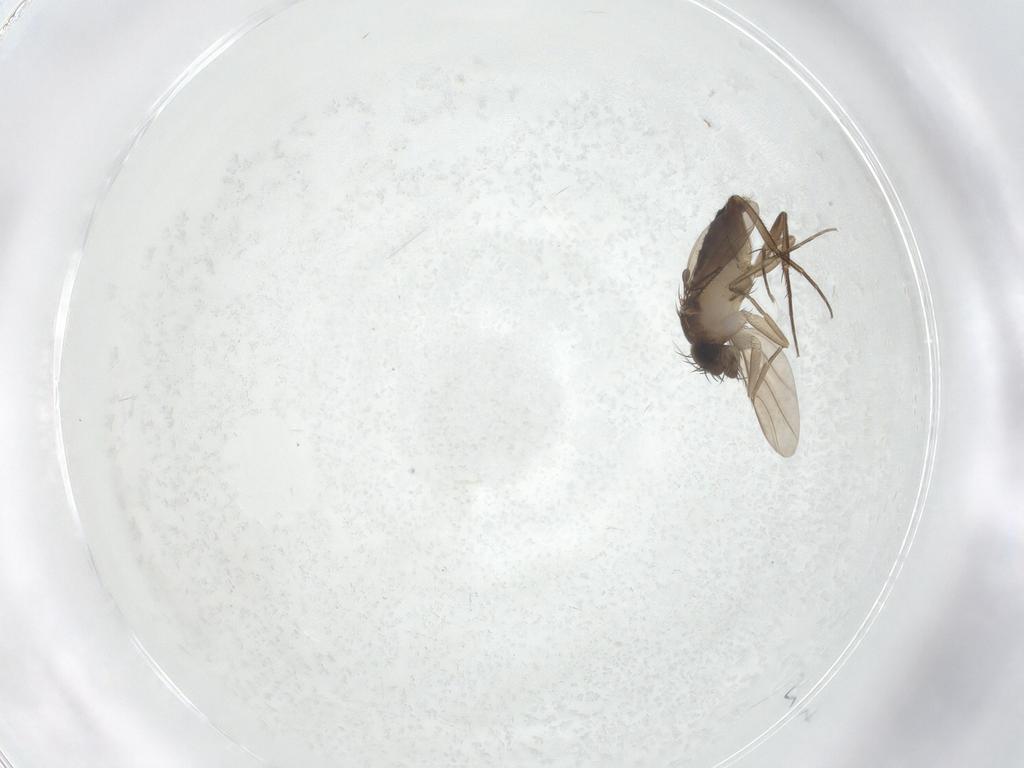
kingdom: Animalia
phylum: Arthropoda
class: Insecta
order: Diptera
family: Phoridae
